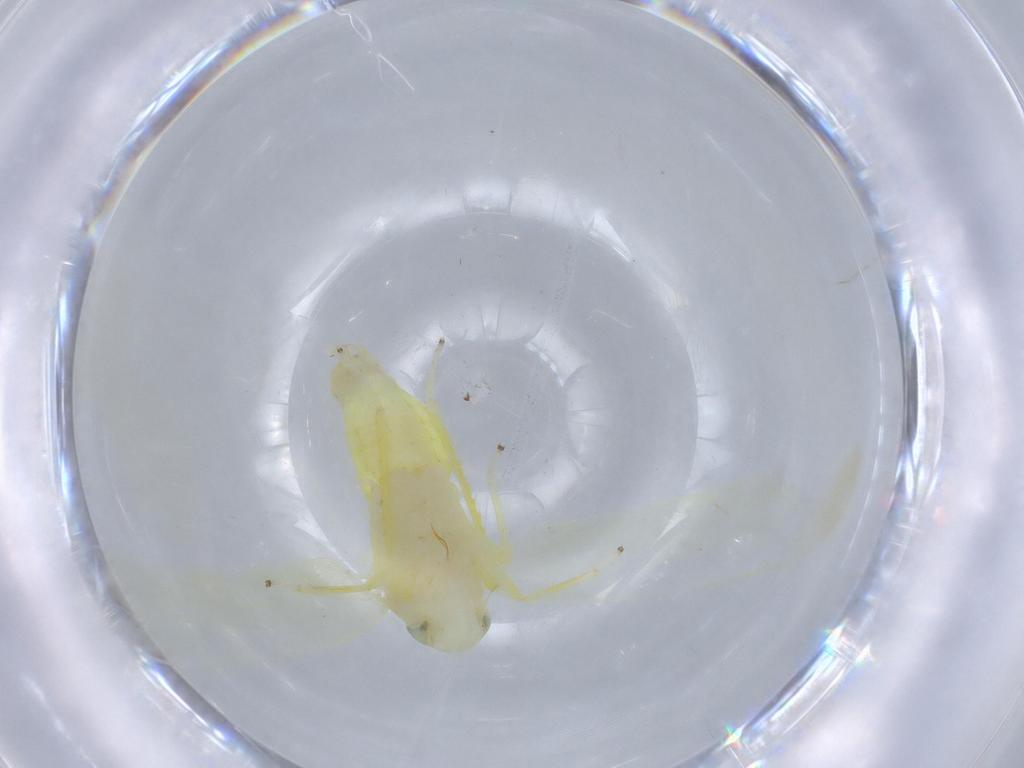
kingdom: Animalia
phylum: Arthropoda
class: Insecta
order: Hemiptera
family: Cicadellidae
